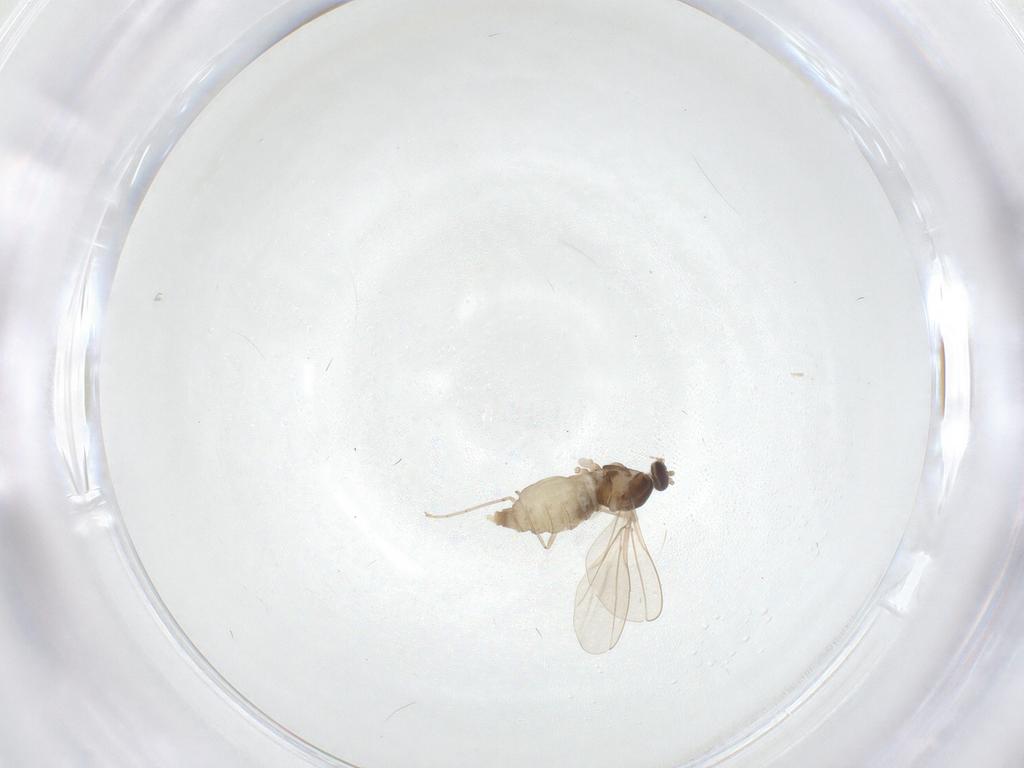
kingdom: Animalia
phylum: Arthropoda
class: Insecta
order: Diptera
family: Cecidomyiidae
